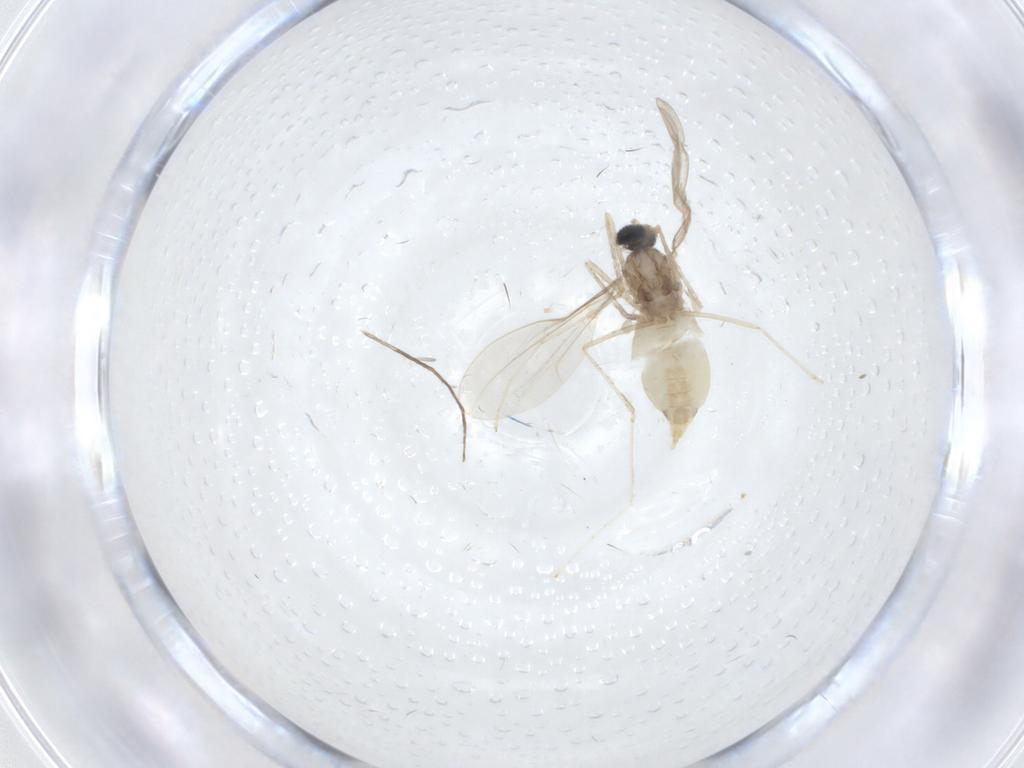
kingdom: Animalia
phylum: Arthropoda
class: Insecta
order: Diptera
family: Cecidomyiidae
